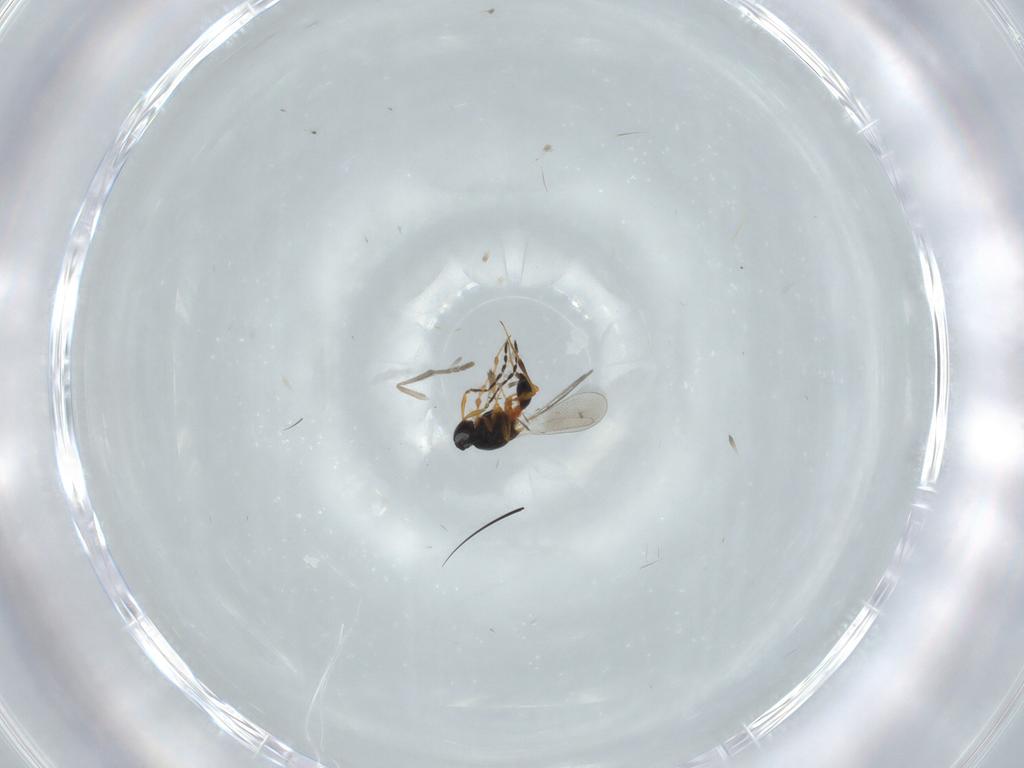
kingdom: Animalia
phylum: Arthropoda
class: Insecta
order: Hymenoptera
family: Platygastridae
